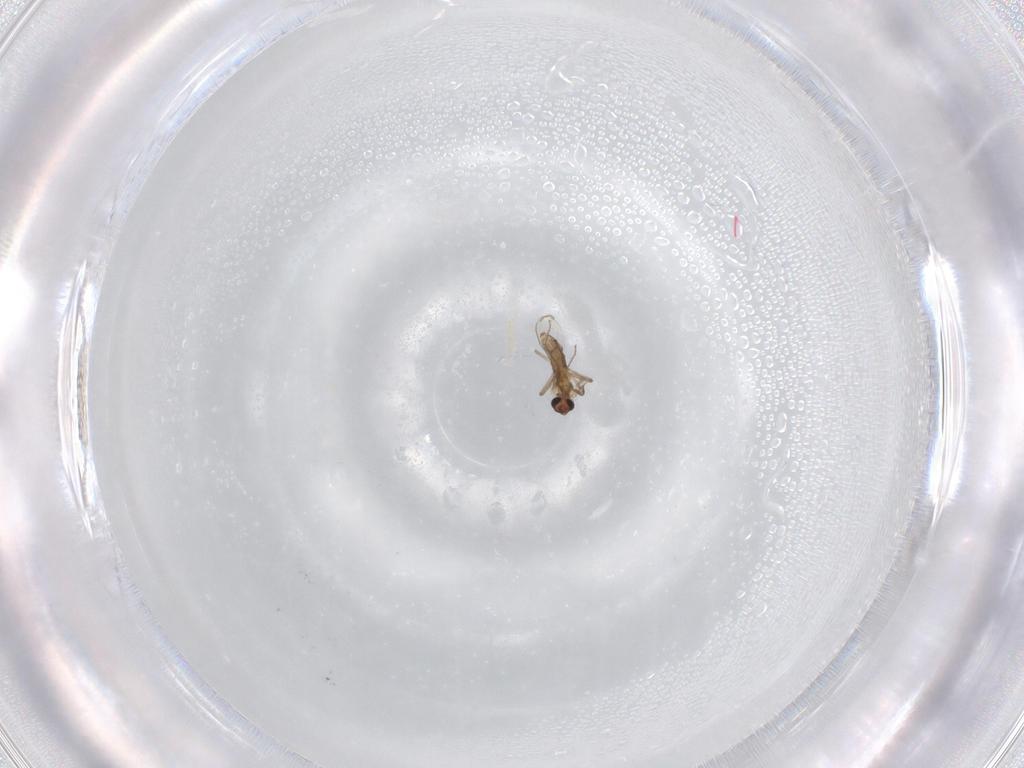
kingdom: Animalia
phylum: Arthropoda
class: Insecta
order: Diptera
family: Chironomidae
